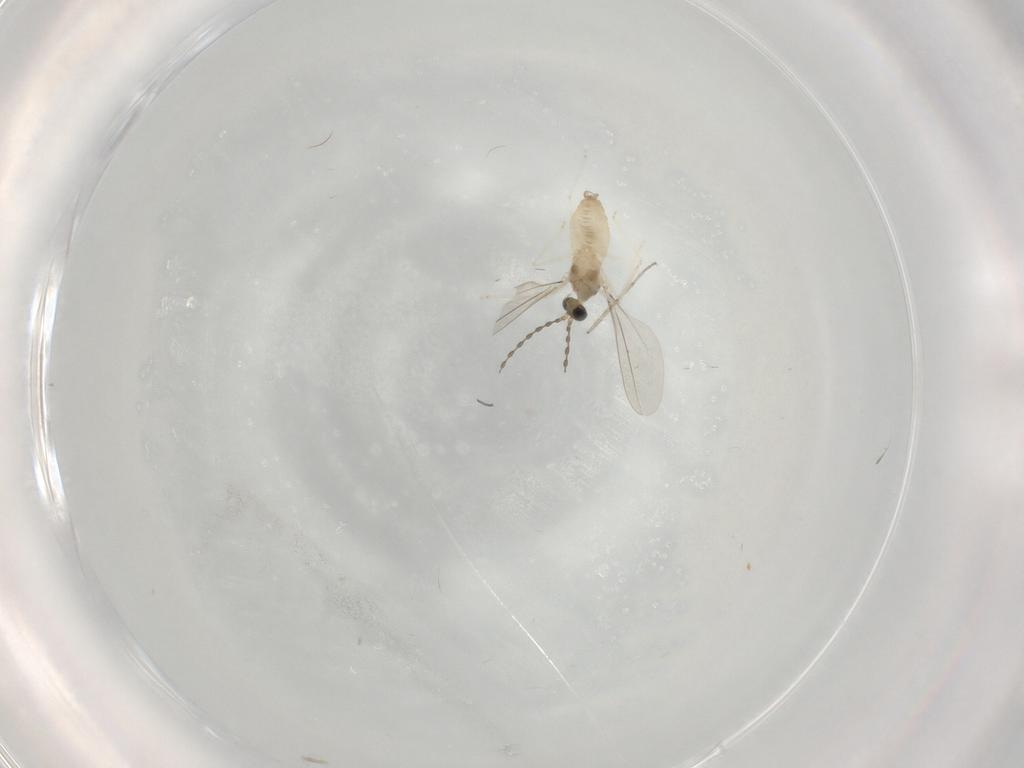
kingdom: Animalia
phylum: Arthropoda
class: Insecta
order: Diptera
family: Cecidomyiidae
